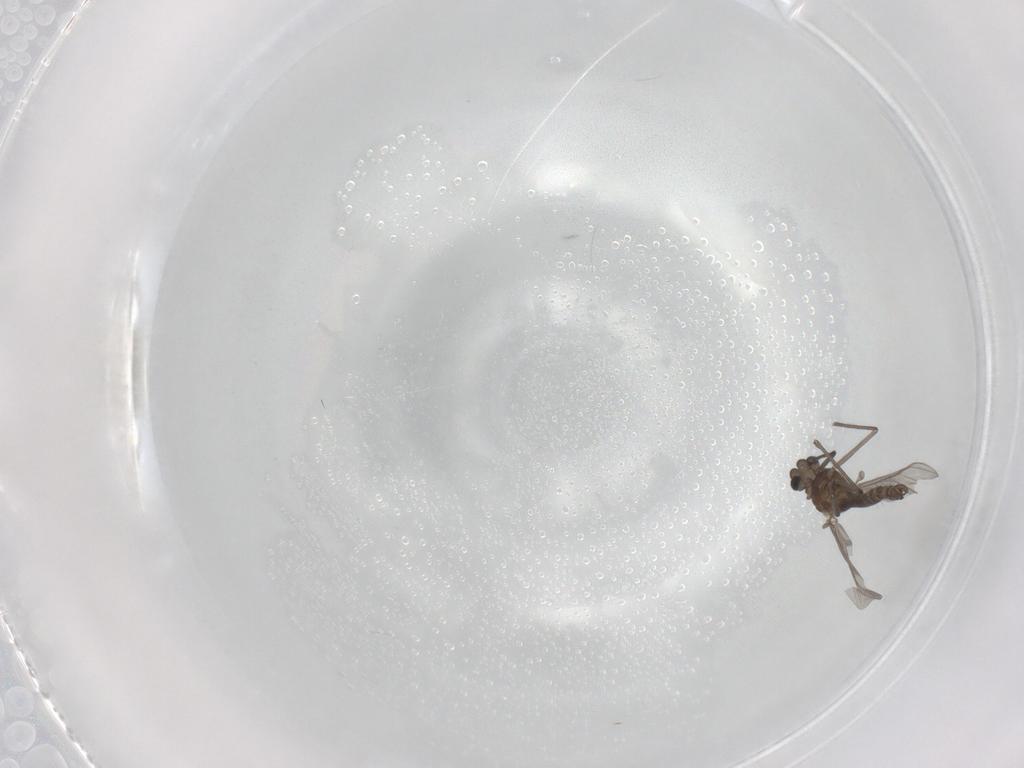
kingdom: Animalia
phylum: Arthropoda
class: Insecta
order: Diptera
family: Chironomidae
